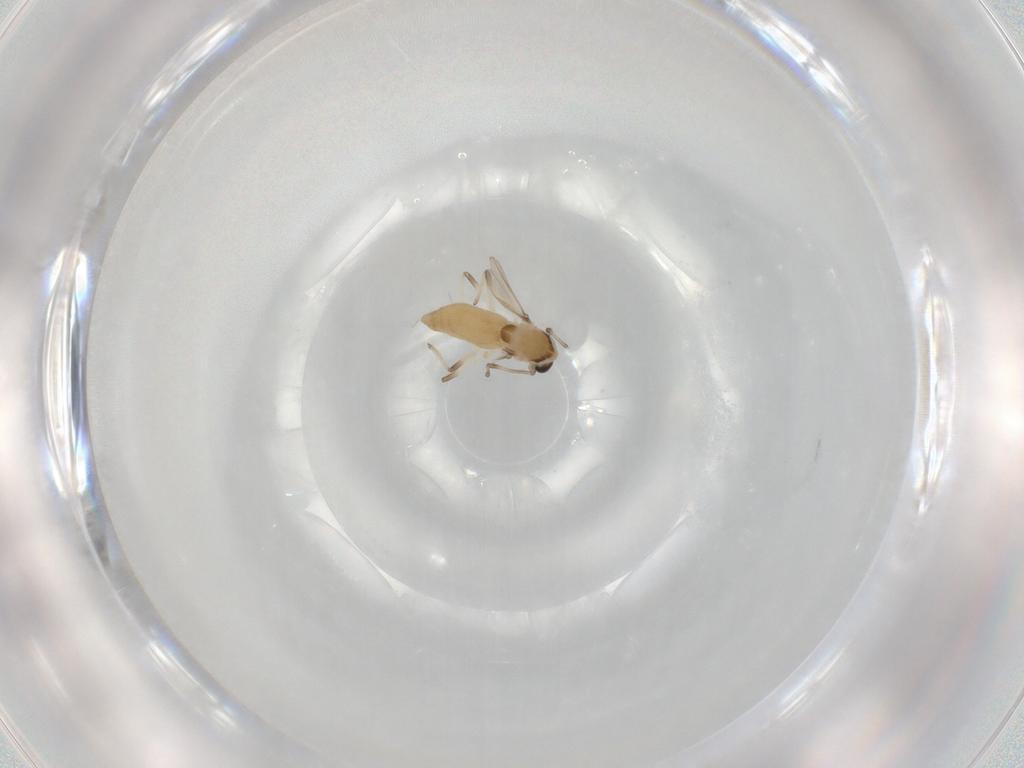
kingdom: Animalia
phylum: Arthropoda
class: Insecta
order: Diptera
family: Chironomidae
